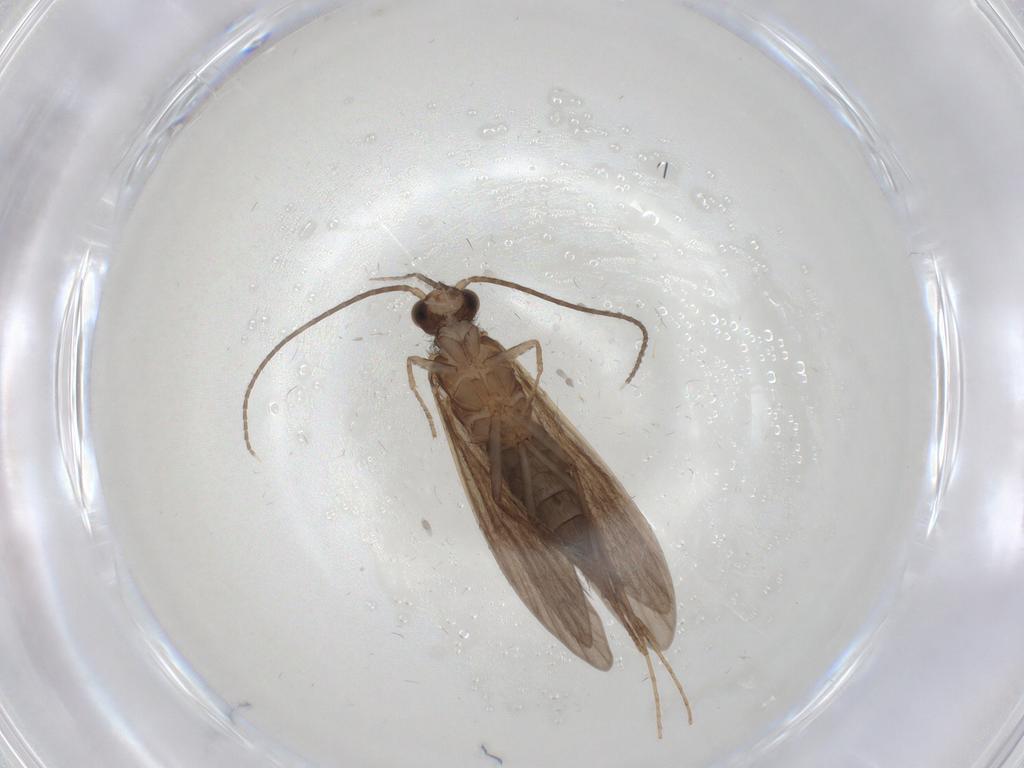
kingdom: Animalia
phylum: Arthropoda
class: Insecta
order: Trichoptera
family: Xiphocentronidae
